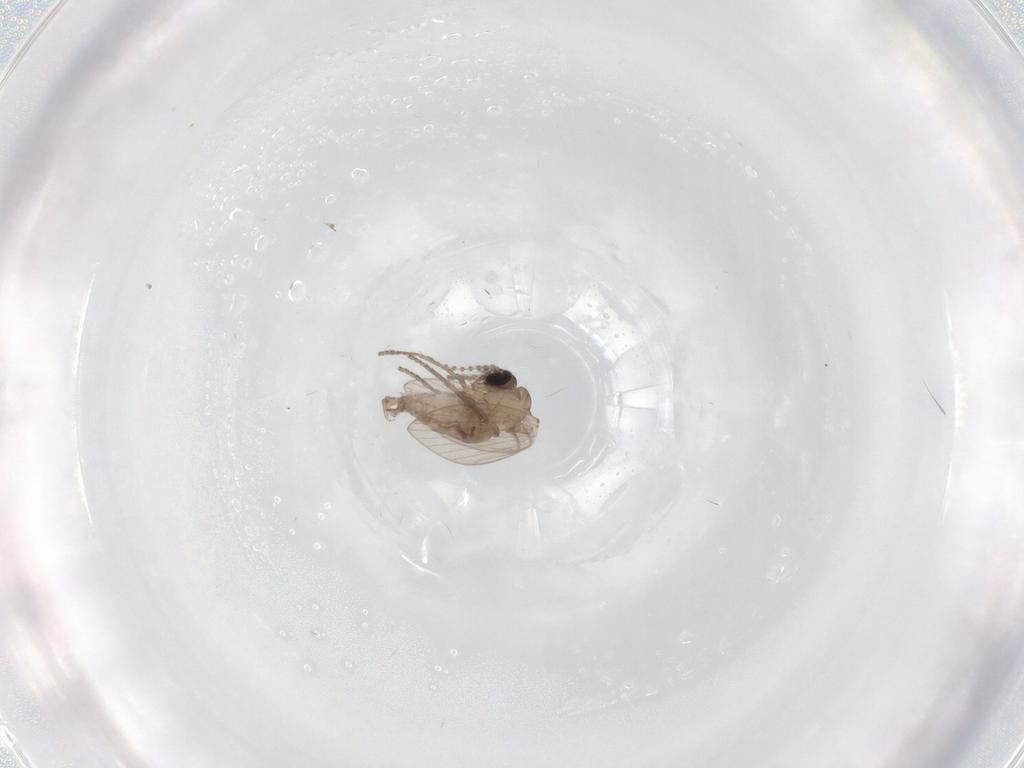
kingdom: Animalia
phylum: Arthropoda
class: Insecta
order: Diptera
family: Psychodidae
